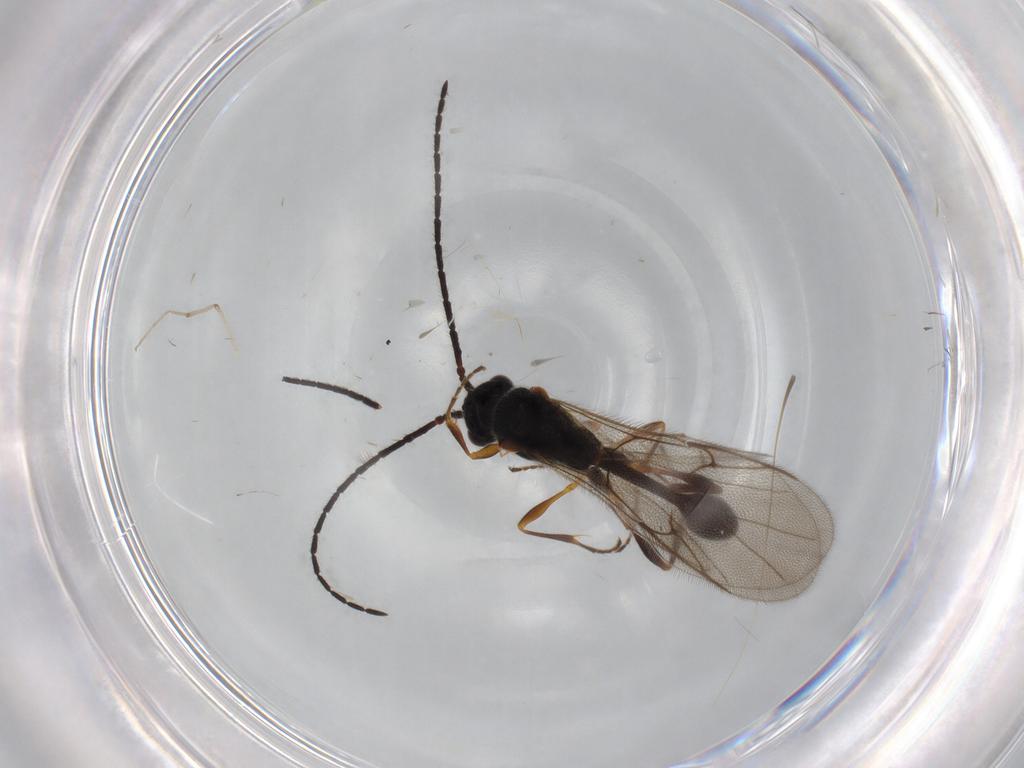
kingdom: Animalia
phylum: Arthropoda
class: Insecta
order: Hymenoptera
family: Diapriidae
